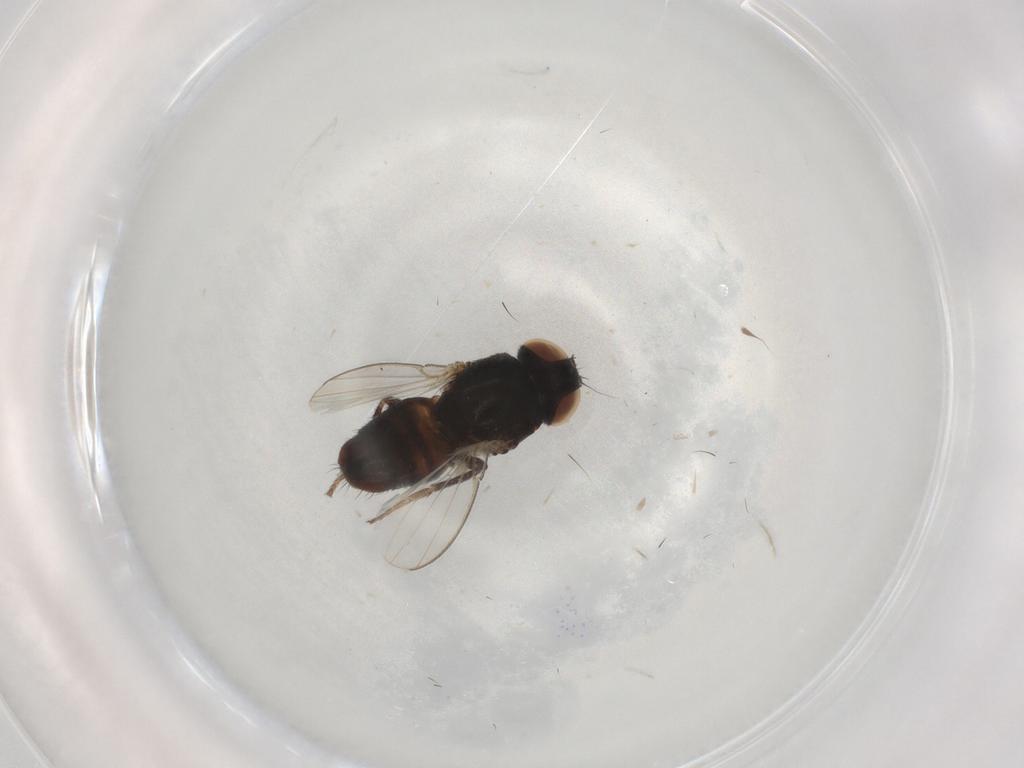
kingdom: Animalia
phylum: Arthropoda
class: Insecta
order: Diptera
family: Milichiidae
